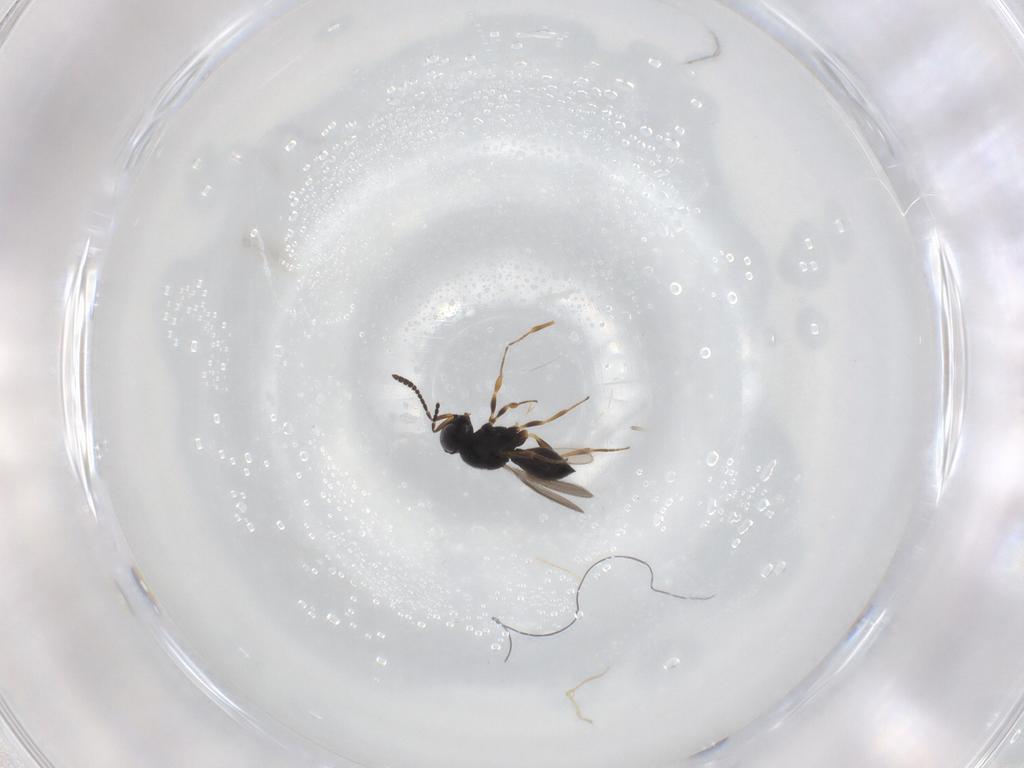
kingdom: Animalia
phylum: Arthropoda
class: Insecta
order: Hymenoptera
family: Scelionidae
